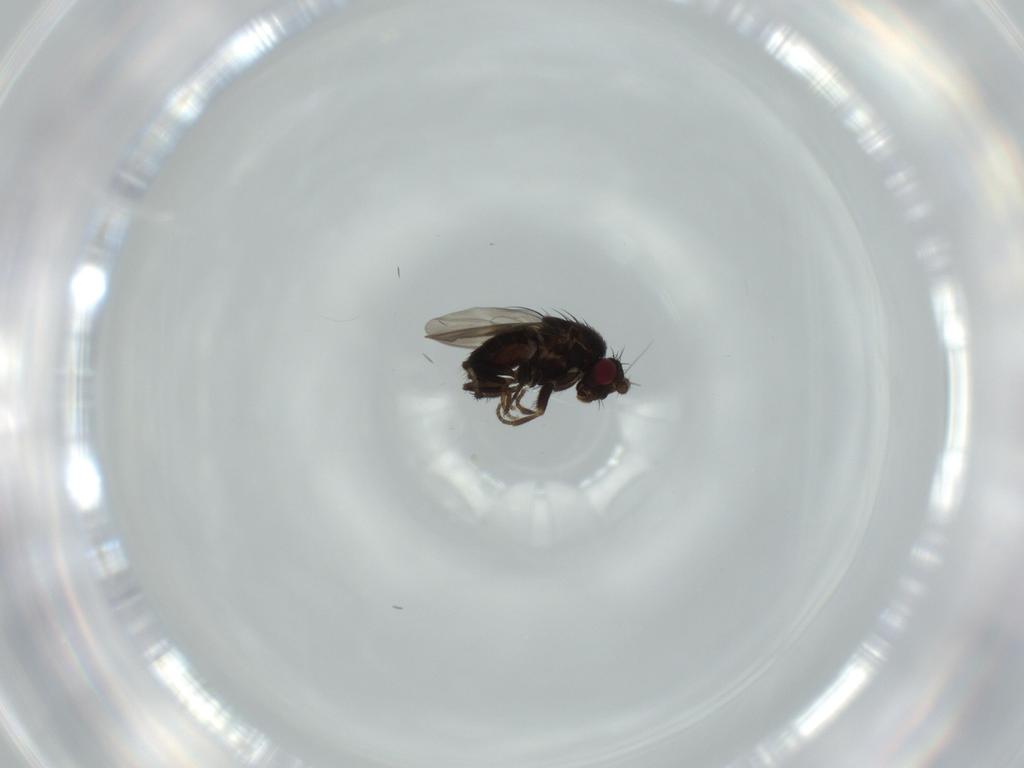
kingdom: Animalia
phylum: Arthropoda
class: Insecta
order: Diptera
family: Sphaeroceridae
